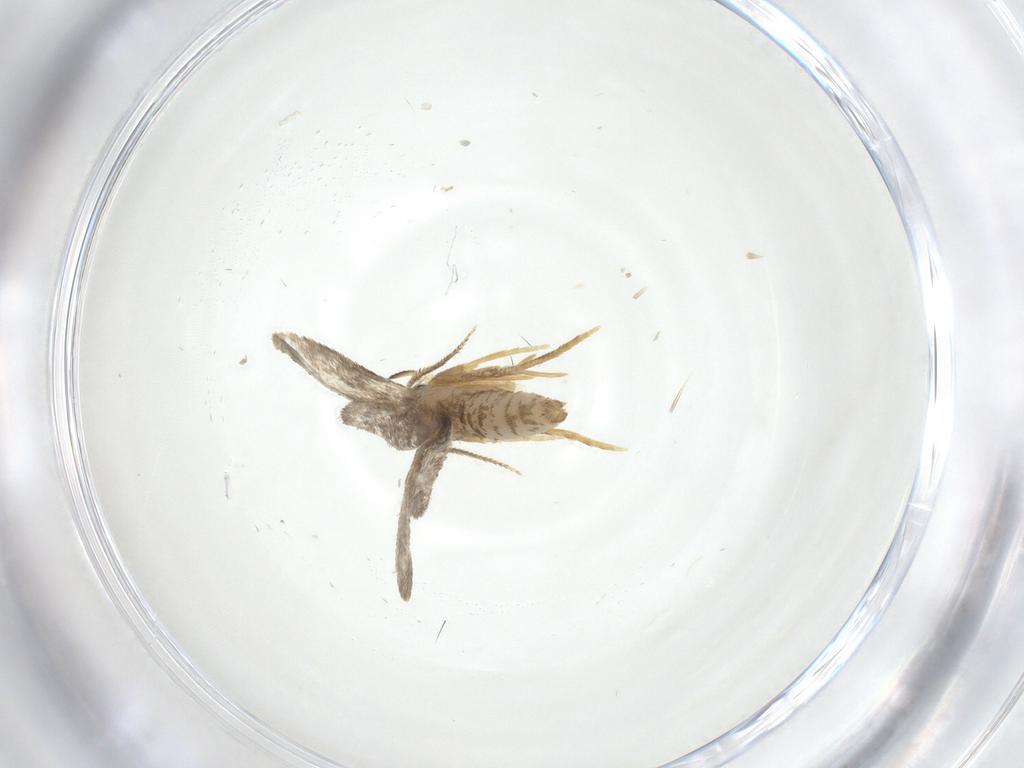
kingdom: Animalia
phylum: Arthropoda
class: Insecta
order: Lepidoptera
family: Psychidae
